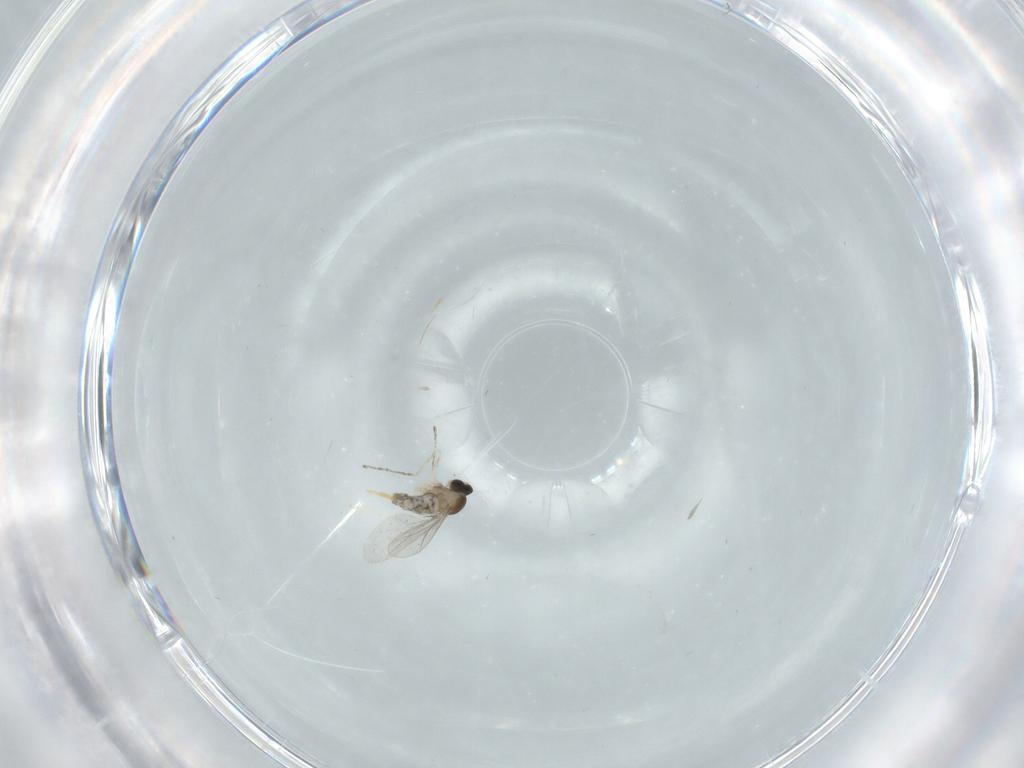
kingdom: Animalia
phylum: Arthropoda
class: Insecta
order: Diptera
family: Cecidomyiidae
